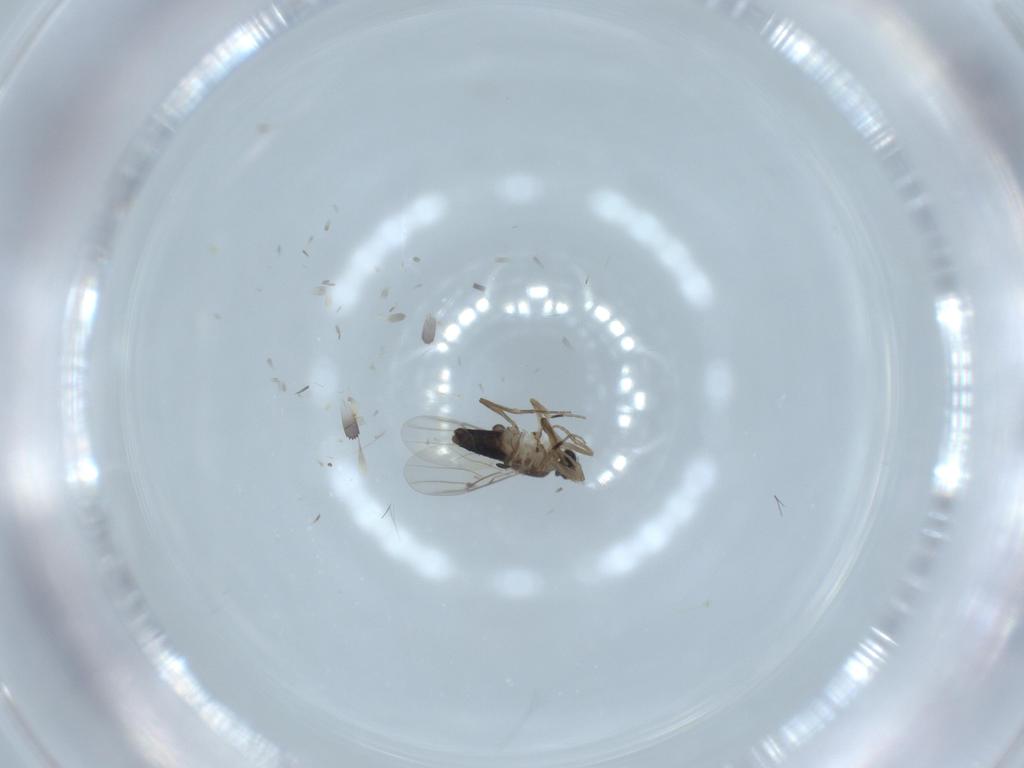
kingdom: Animalia
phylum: Arthropoda
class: Insecta
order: Diptera
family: Phoridae
